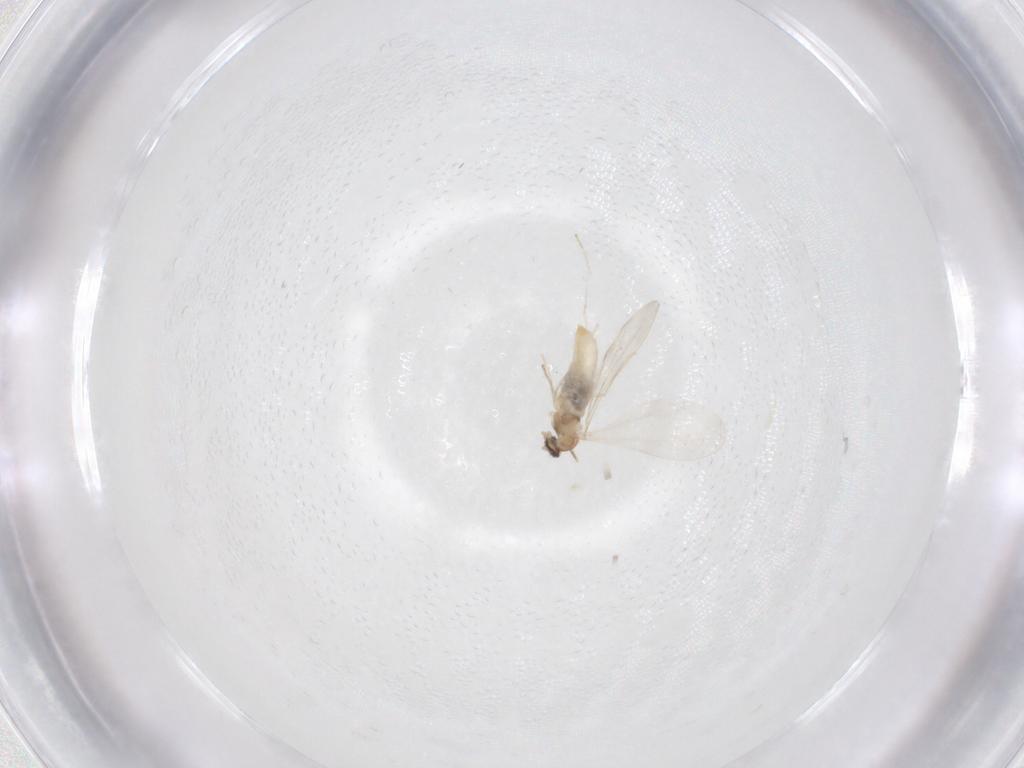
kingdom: Animalia
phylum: Arthropoda
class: Insecta
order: Diptera
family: Cecidomyiidae
